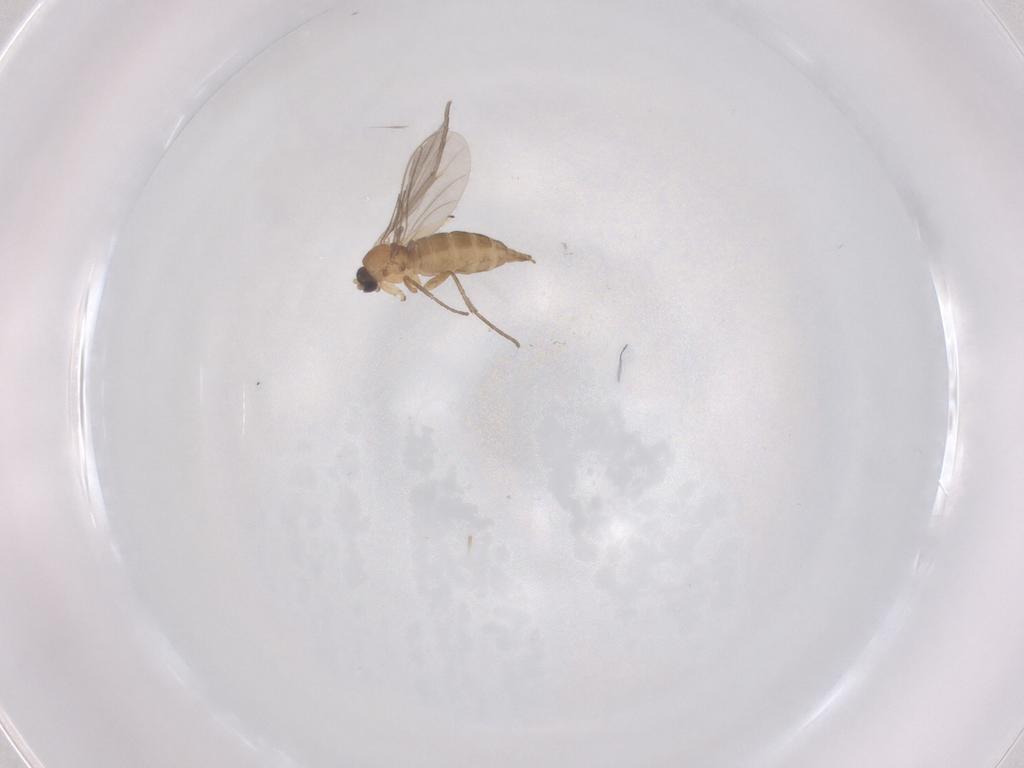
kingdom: Animalia
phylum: Arthropoda
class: Insecta
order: Diptera
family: Sciaridae
